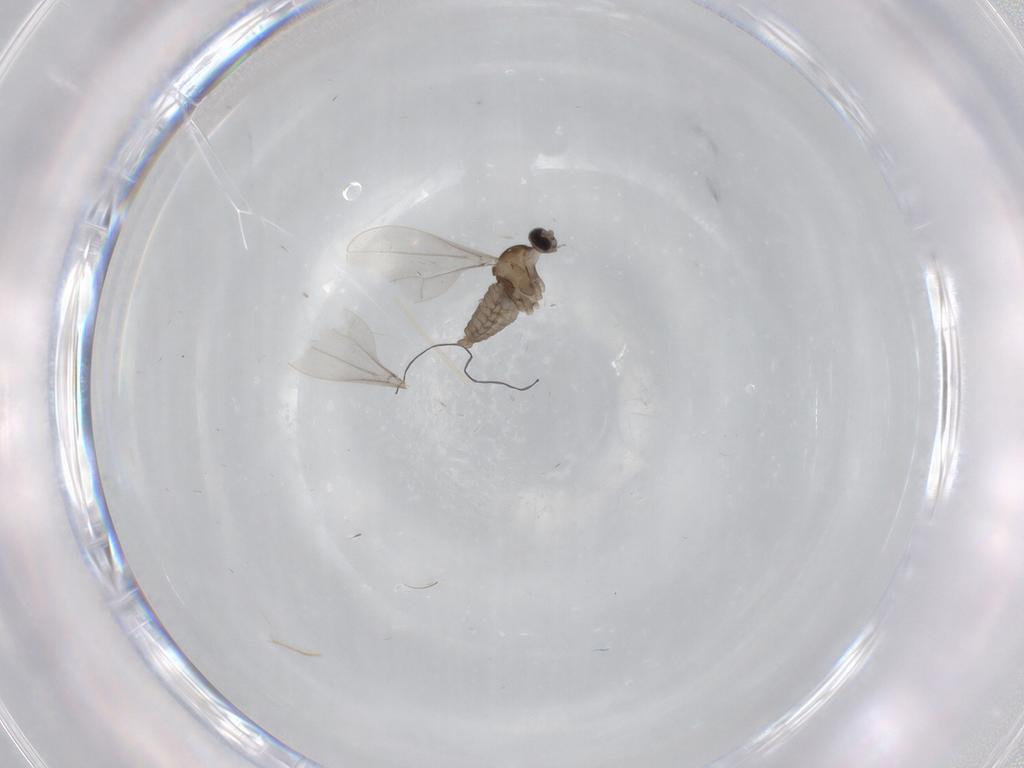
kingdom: Animalia
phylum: Arthropoda
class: Insecta
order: Diptera
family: Cecidomyiidae
